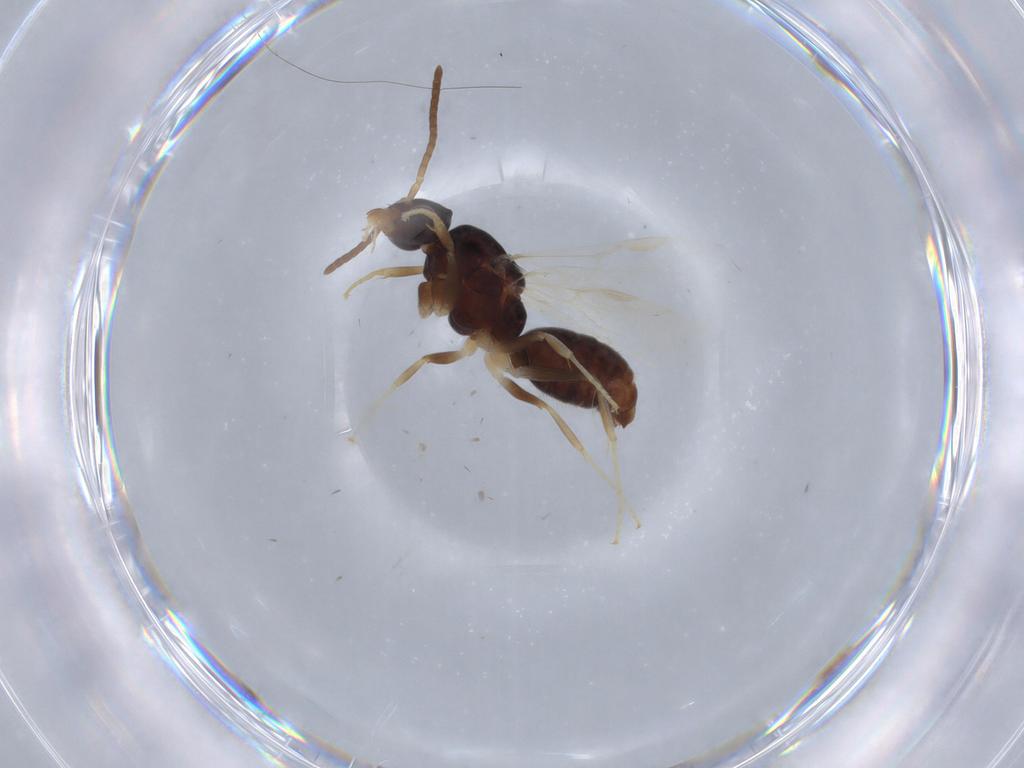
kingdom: Animalia
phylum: Arthropoda
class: Insecta
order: Hymenoptera
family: Formicidae
